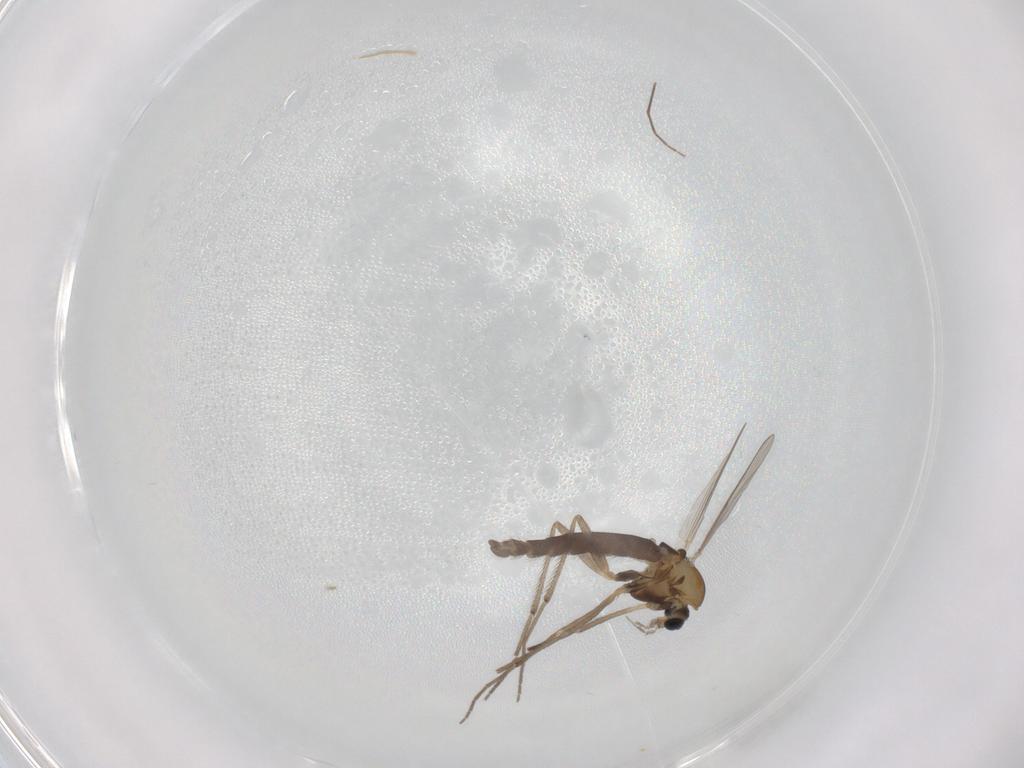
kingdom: Animalia
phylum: Arthropoda
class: Insecta
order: Diptera
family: Chironomidae
